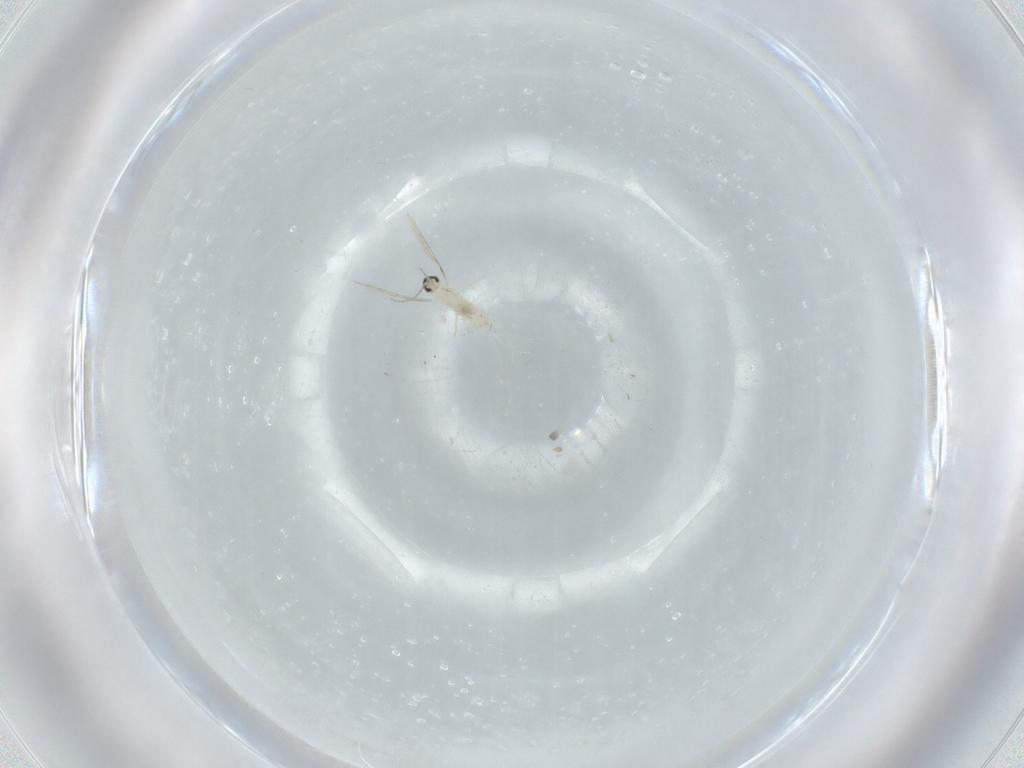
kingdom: Animalia
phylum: Arthropoda
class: Insecta
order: Diptera
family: Cecidomyiidae
